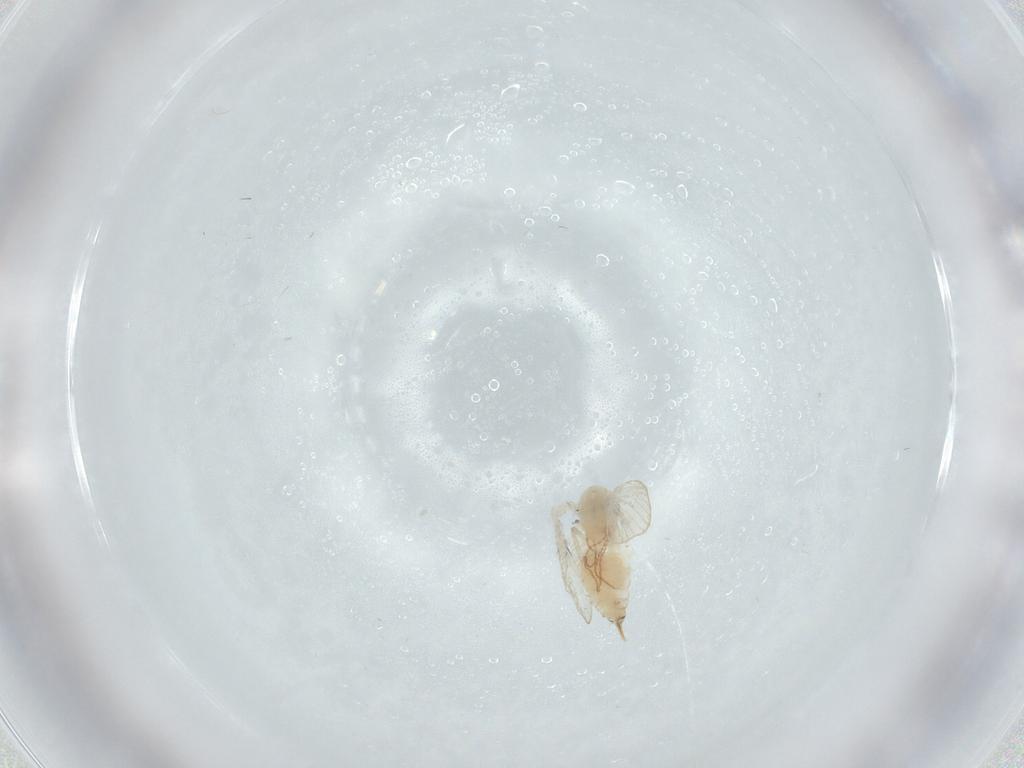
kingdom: Animalia
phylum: Arthropoda
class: Insecta
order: Diptera
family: Psychodidae
